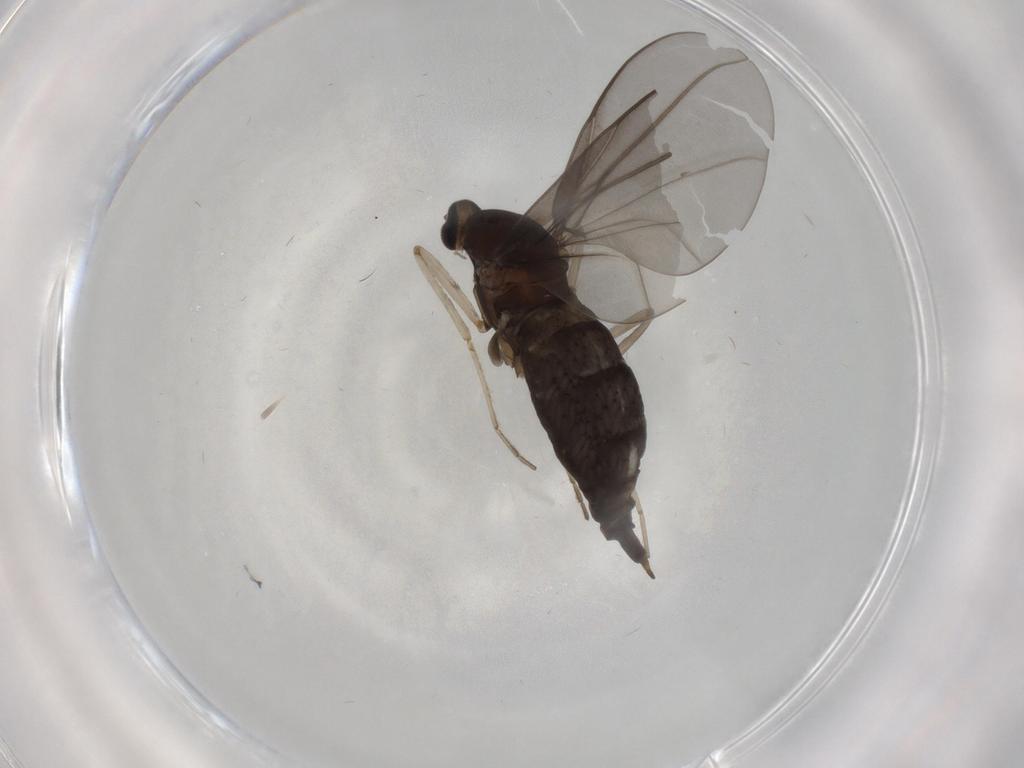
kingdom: Animalia
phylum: Arthropoda
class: Insecta
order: Diptera
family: Cecidomyiidae
